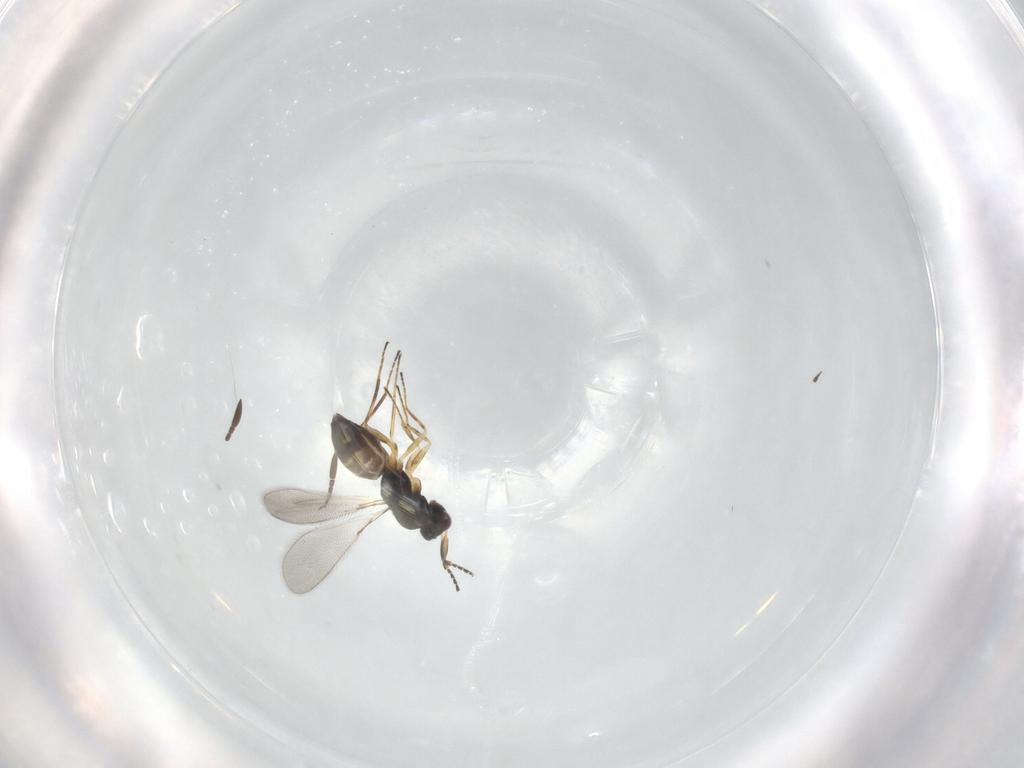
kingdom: Animalia
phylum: Arthropoda
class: Insecta
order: Hymenoptera
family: Mymaridae
